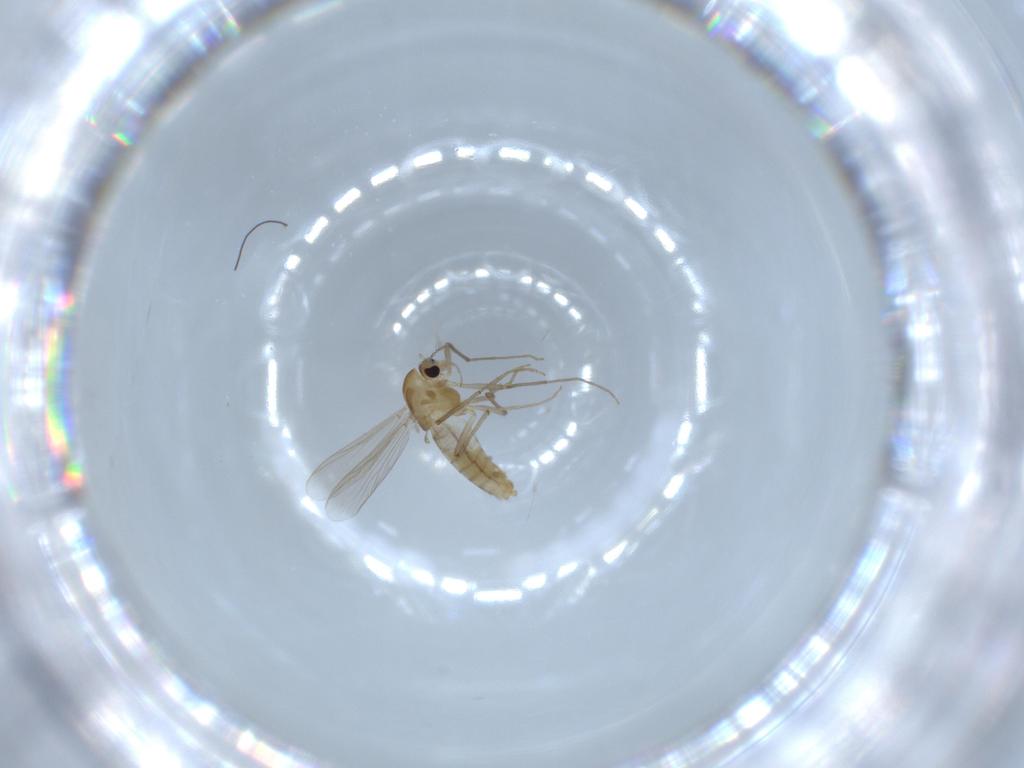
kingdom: Animalia
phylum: Arthropoda
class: Insecta
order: Diptera
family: Chironomidae
